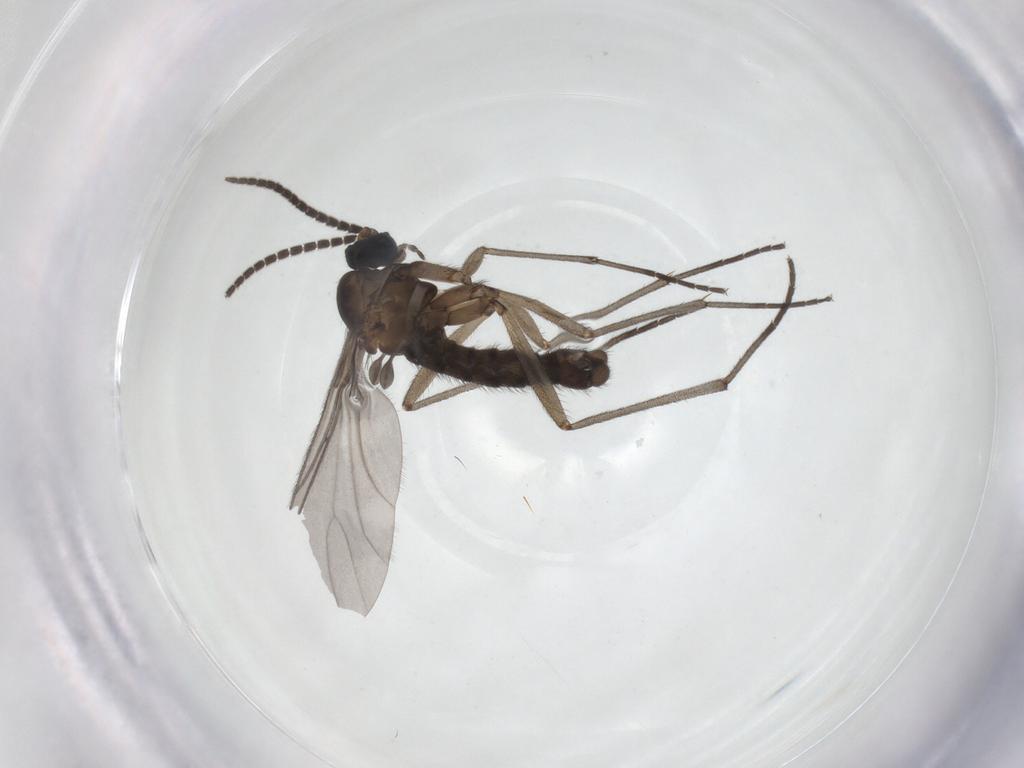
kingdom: Animalia
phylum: Arthropoda
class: Insecta
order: Diptera
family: Sciaridae
